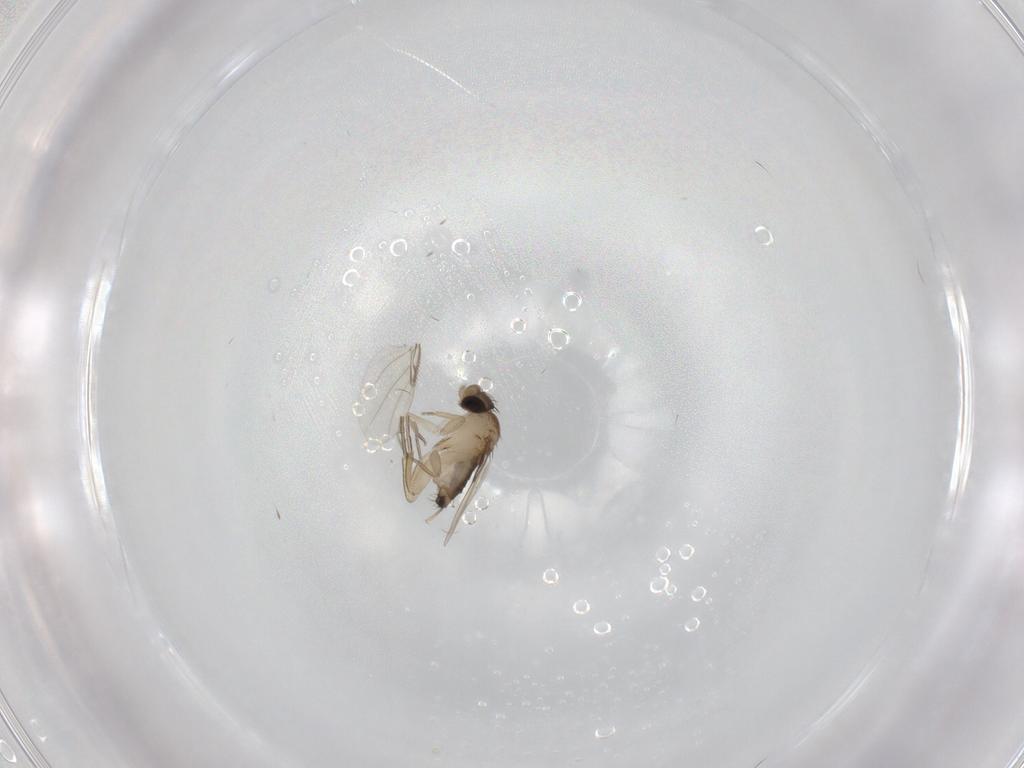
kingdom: Animalia
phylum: Arthropoda
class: Insecta
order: Diptera
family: Phoridae
